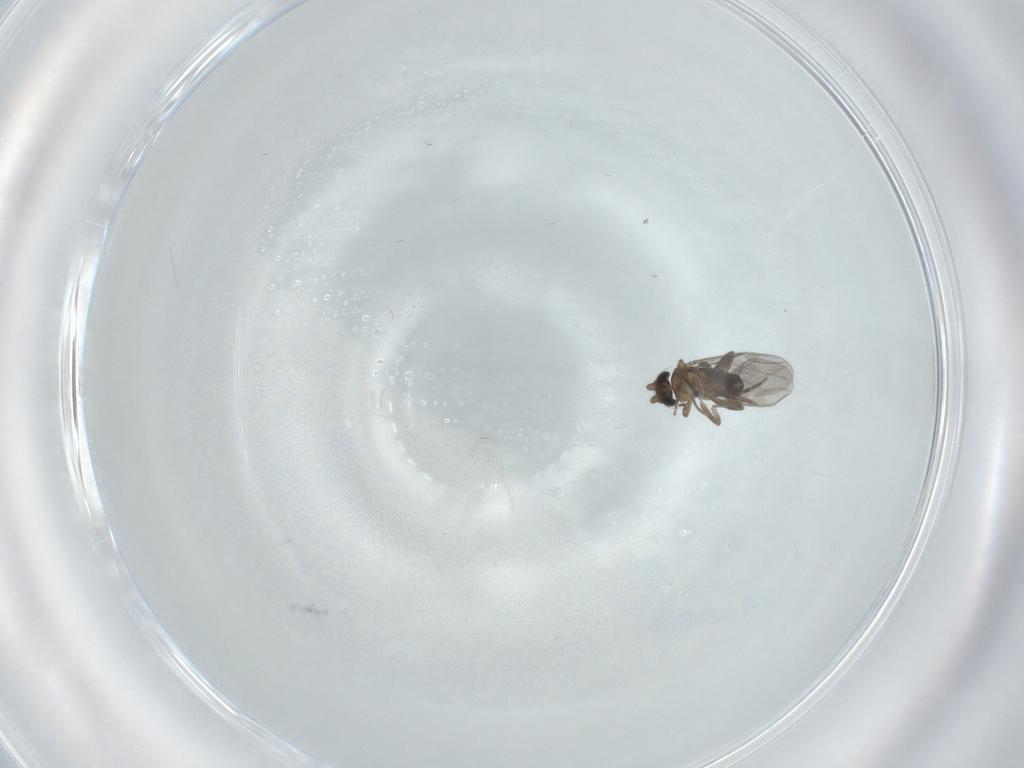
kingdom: Animalia
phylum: Arthropoda
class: Insecta
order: Diptera
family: Psychodidae
